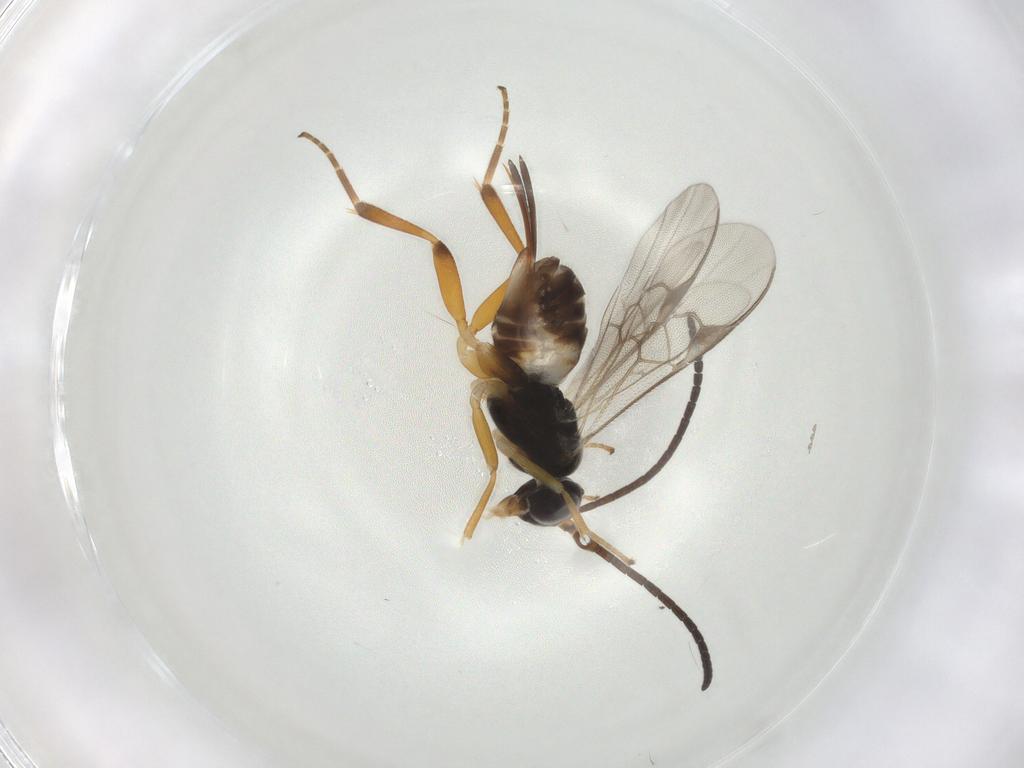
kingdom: Animalia
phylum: Arthropoda
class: Insecta
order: Hymenoptera
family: Braconidae
